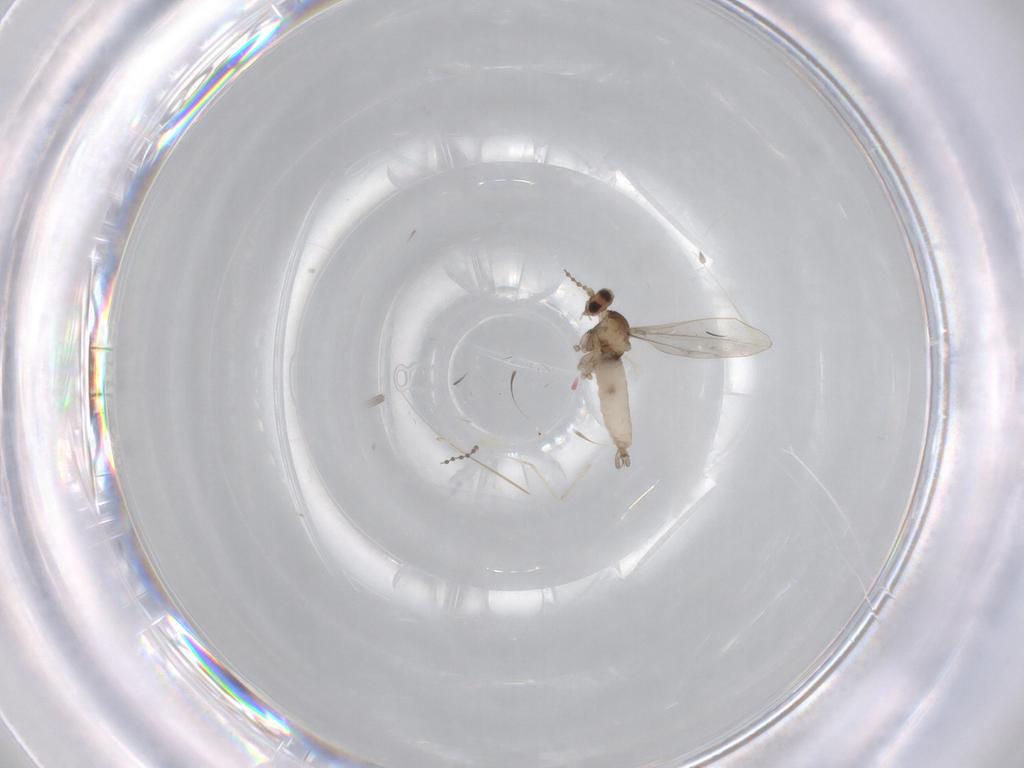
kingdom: Animalia
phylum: Arthropoda
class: Insecta
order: Diptera
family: Cecidomyiidae
